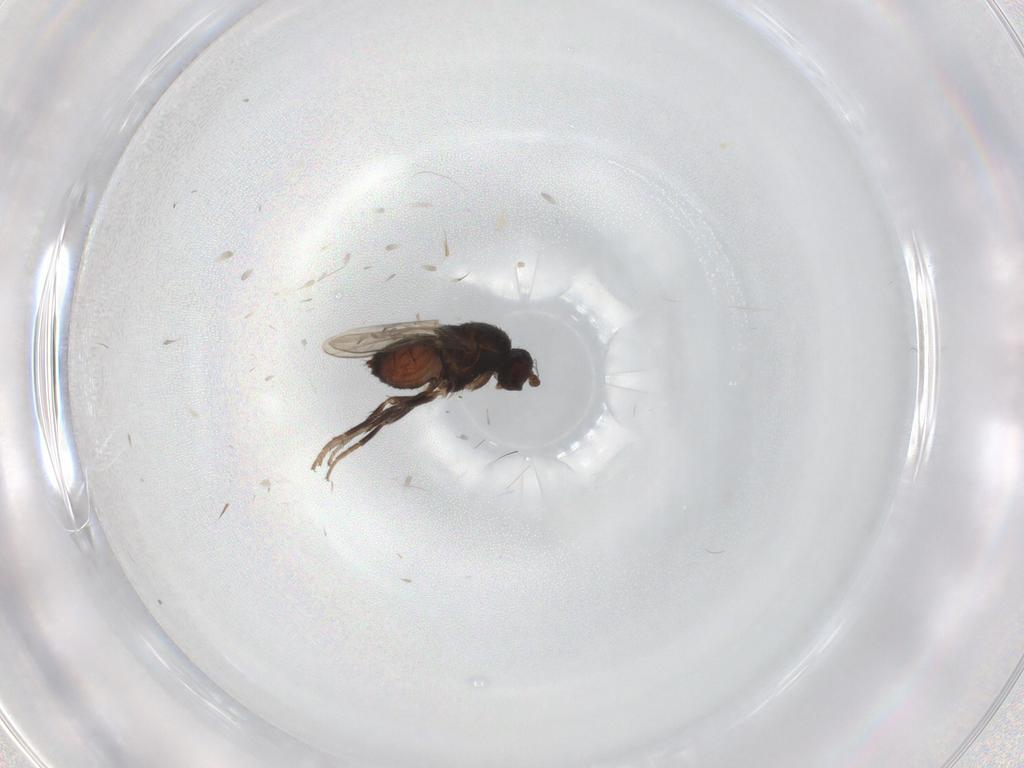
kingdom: Animalia
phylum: Arthropoda
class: Insecta
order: Diptera
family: Sphaeroceridae
